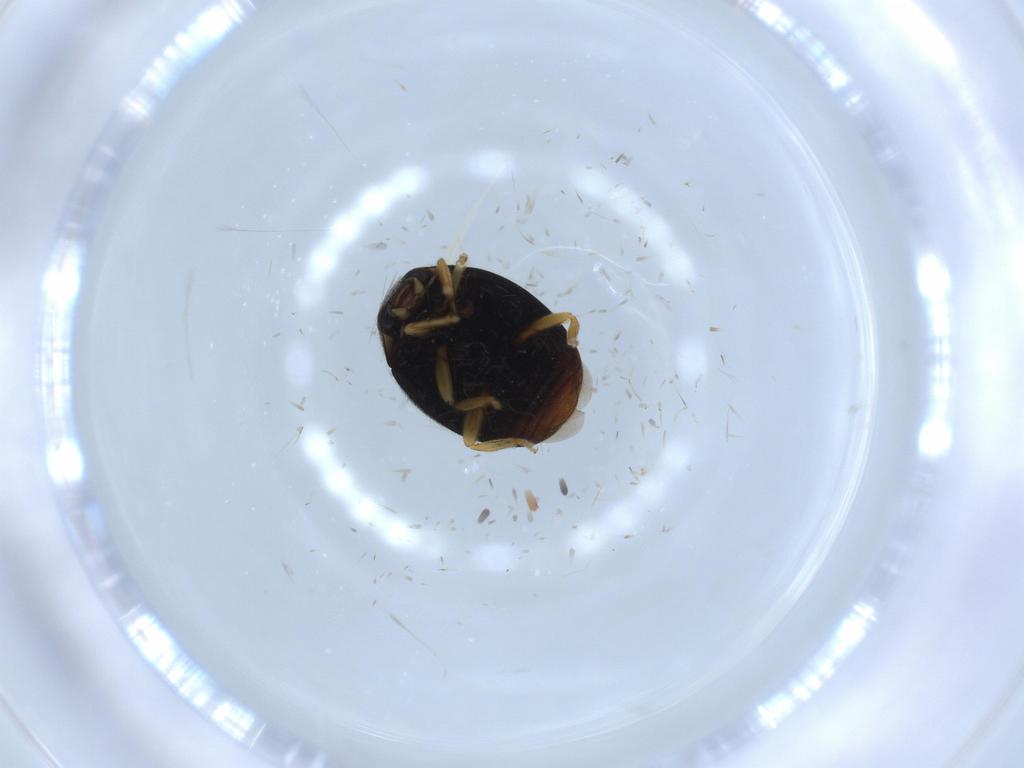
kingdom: Animalia
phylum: Arthropoda
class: Insecta
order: Coleoptera
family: Coccinellidae
